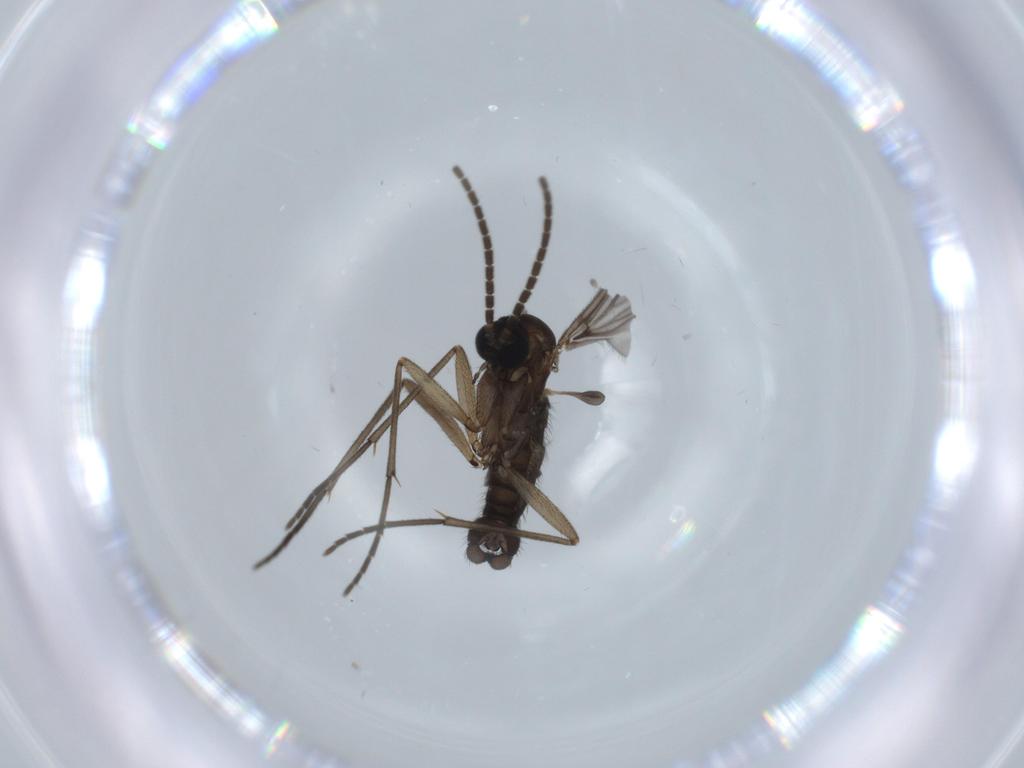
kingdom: Animalia
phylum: Arthropoda
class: Insecta
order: Diptera
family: Sciaridae
